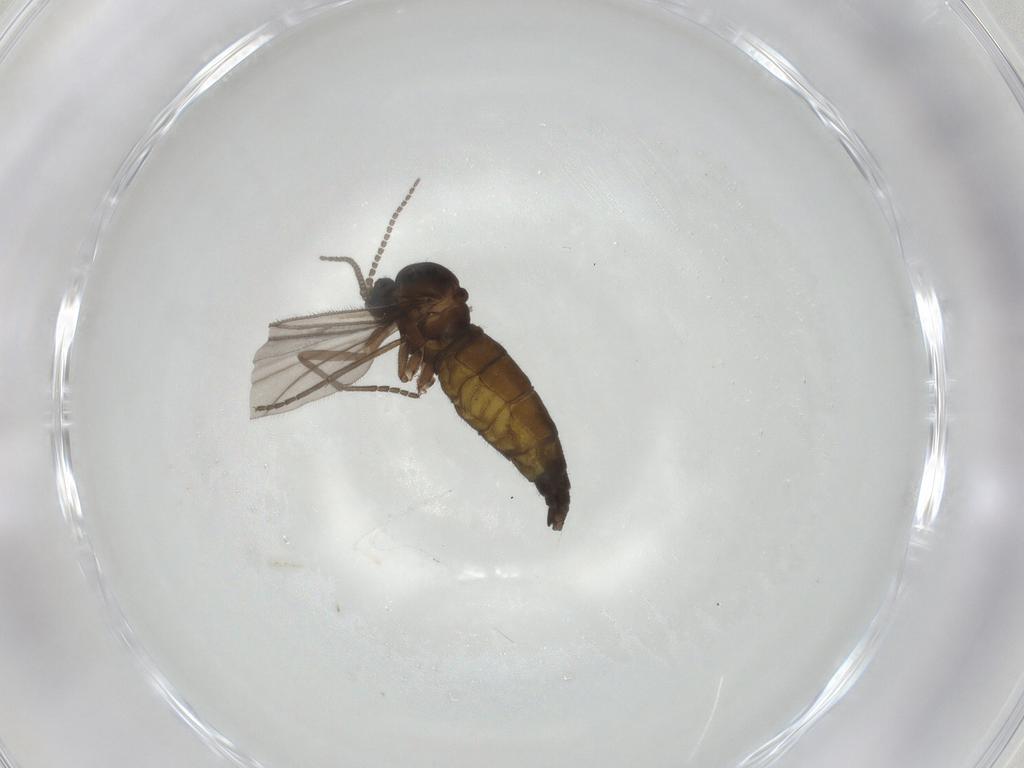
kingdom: Animalia
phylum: Arthropoda
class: Insecta
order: Diptera
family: Sciaridae
